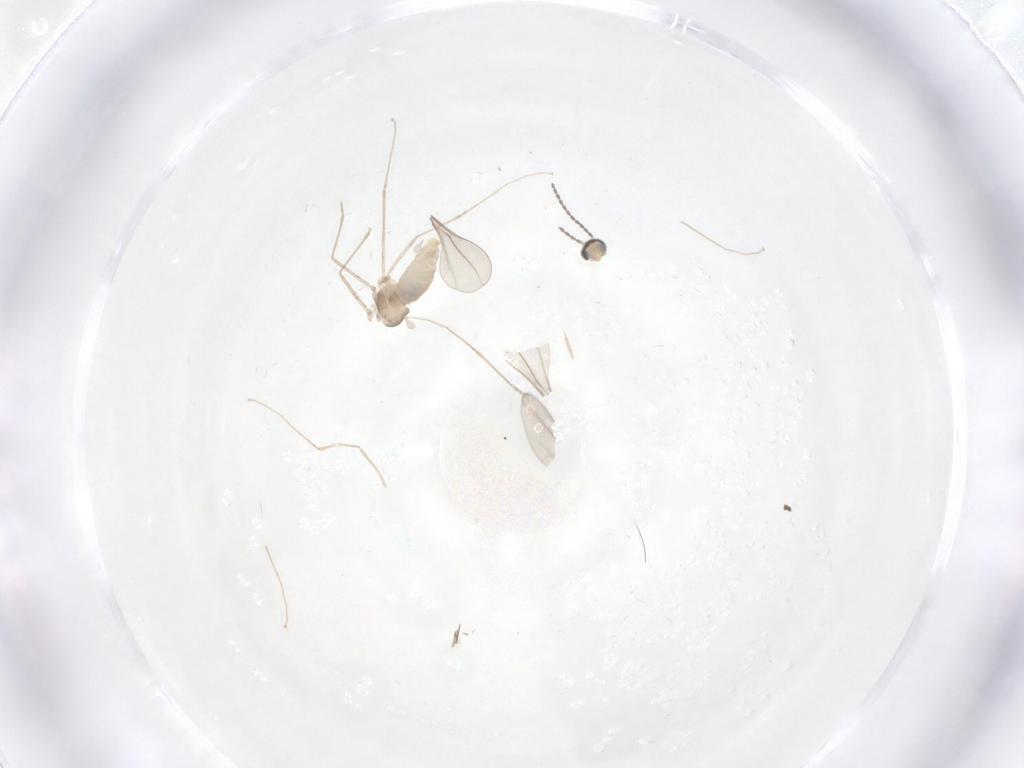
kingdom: Animalia
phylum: Arthropoda
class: Insecta
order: Diptera
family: Cecidomyiidae
